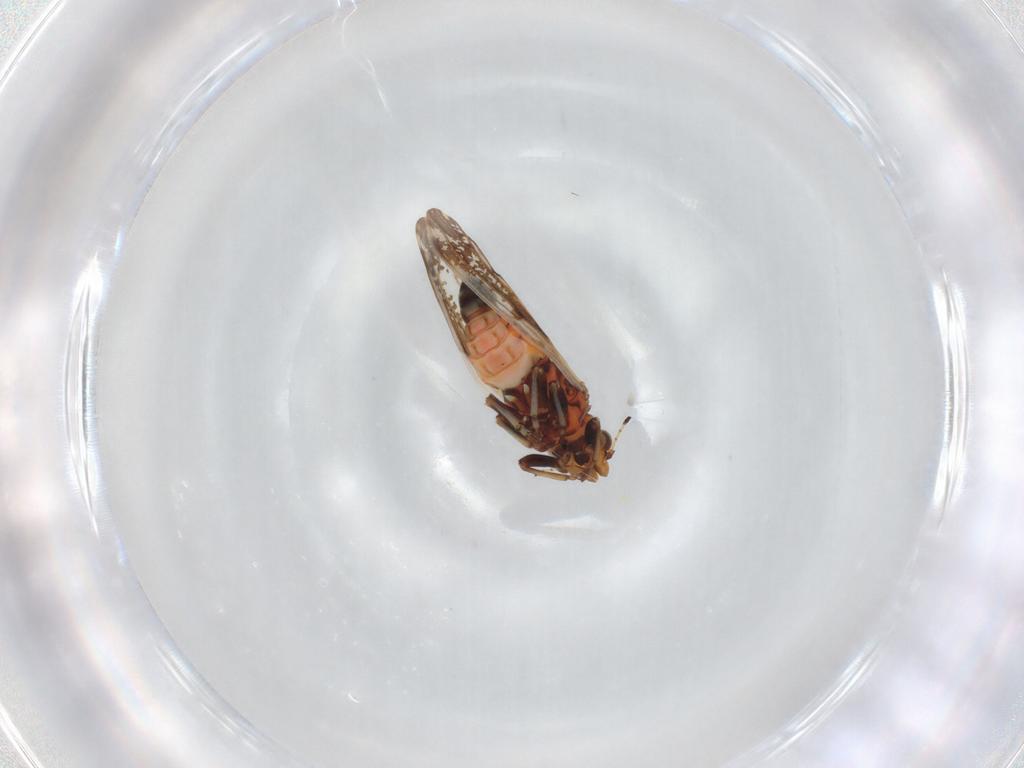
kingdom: Animalia
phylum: Arthropoda
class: Insecta
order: Hemiptera
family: Psylloidea_incertae_sedis
